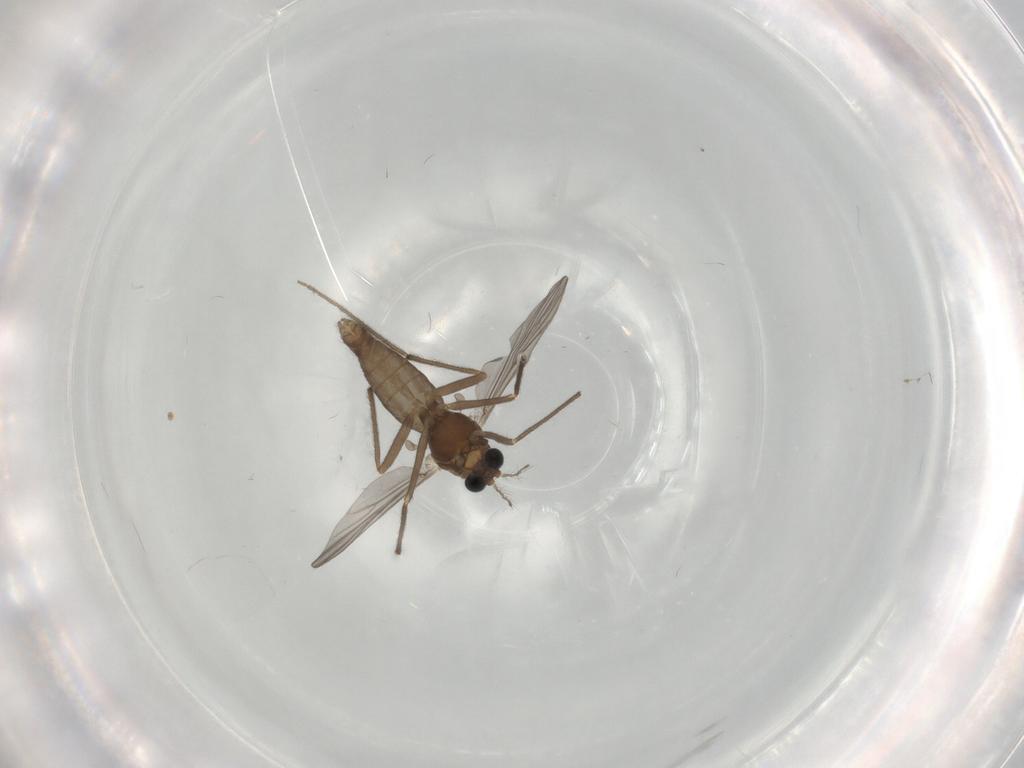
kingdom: Animalia
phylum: Arthropoda
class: Insecta
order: Diptera
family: Chironomidae
